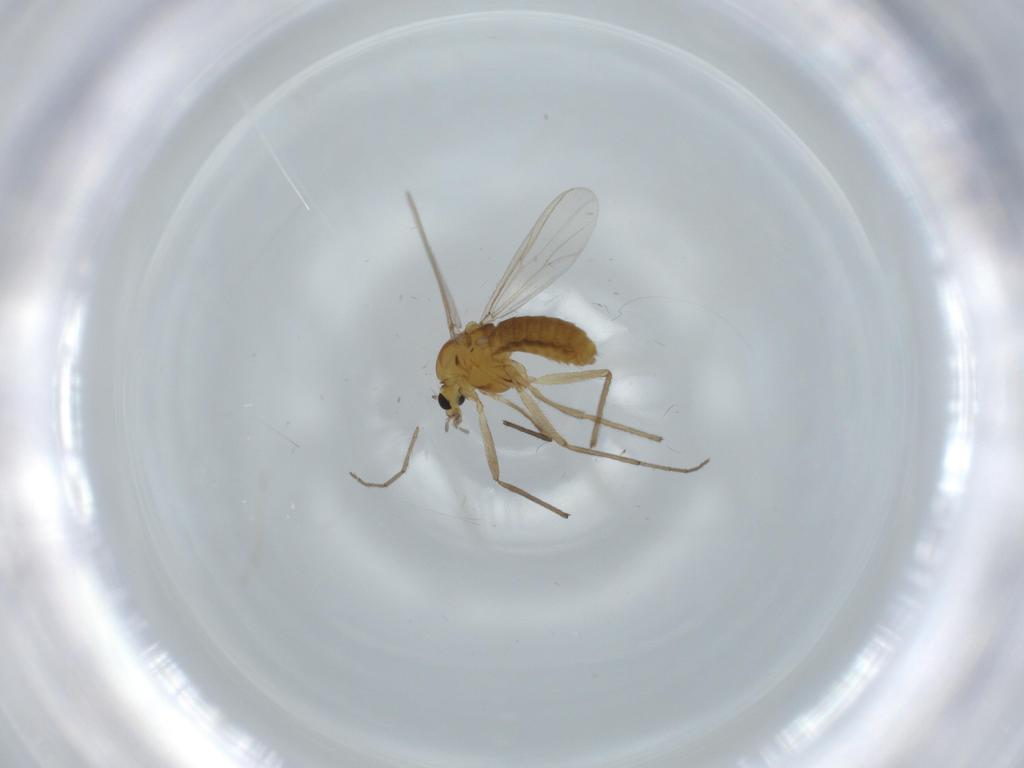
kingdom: Animalia
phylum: Arthropoda
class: Insecta
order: Diptera
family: Chironomidae
